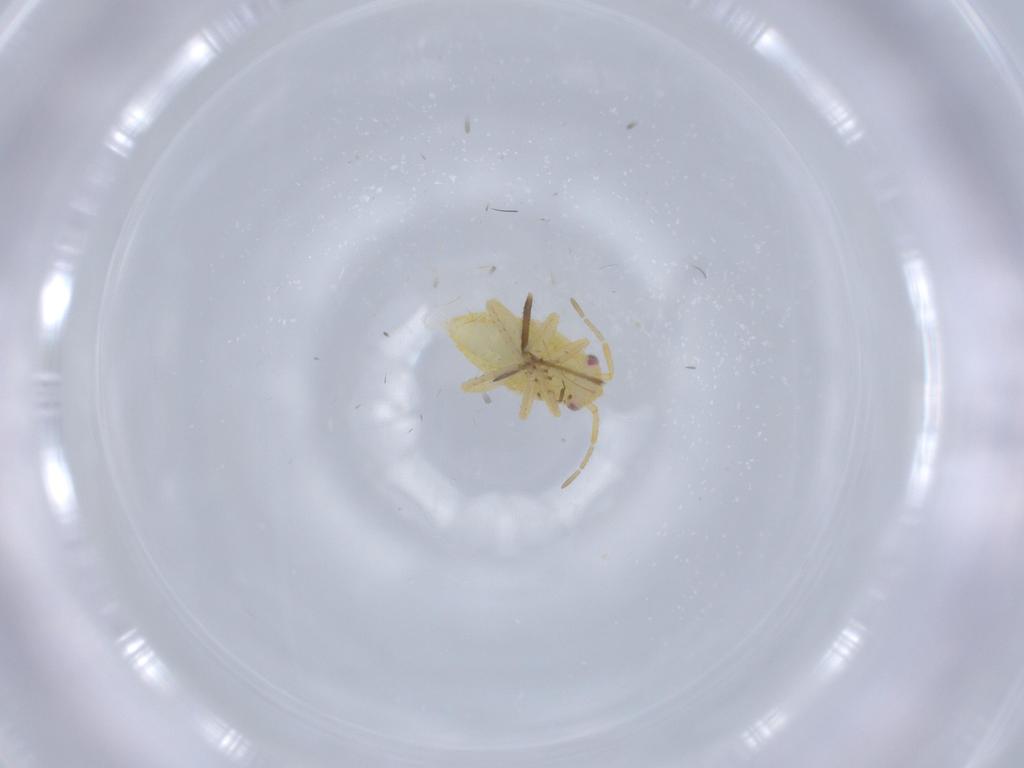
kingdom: Animalia
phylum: Arthropoda
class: Insecta
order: Hemiptera
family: Miridae
